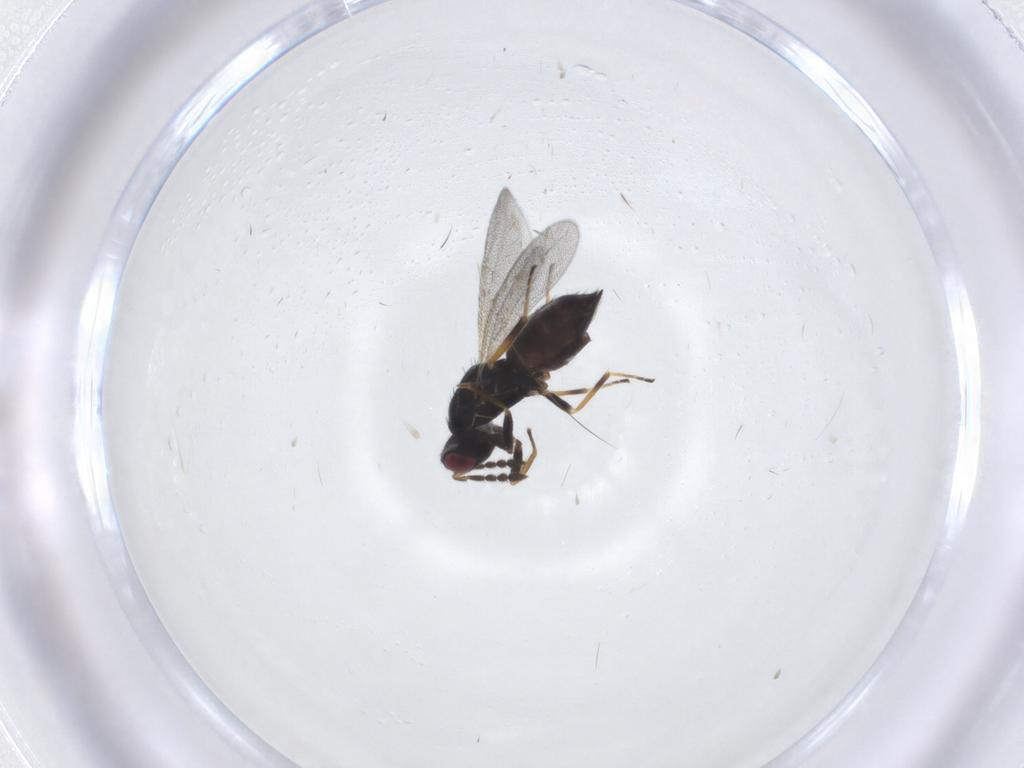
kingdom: Animalia
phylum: Arthropoda
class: Insecta
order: Hymenoptera
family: Eulophidae
